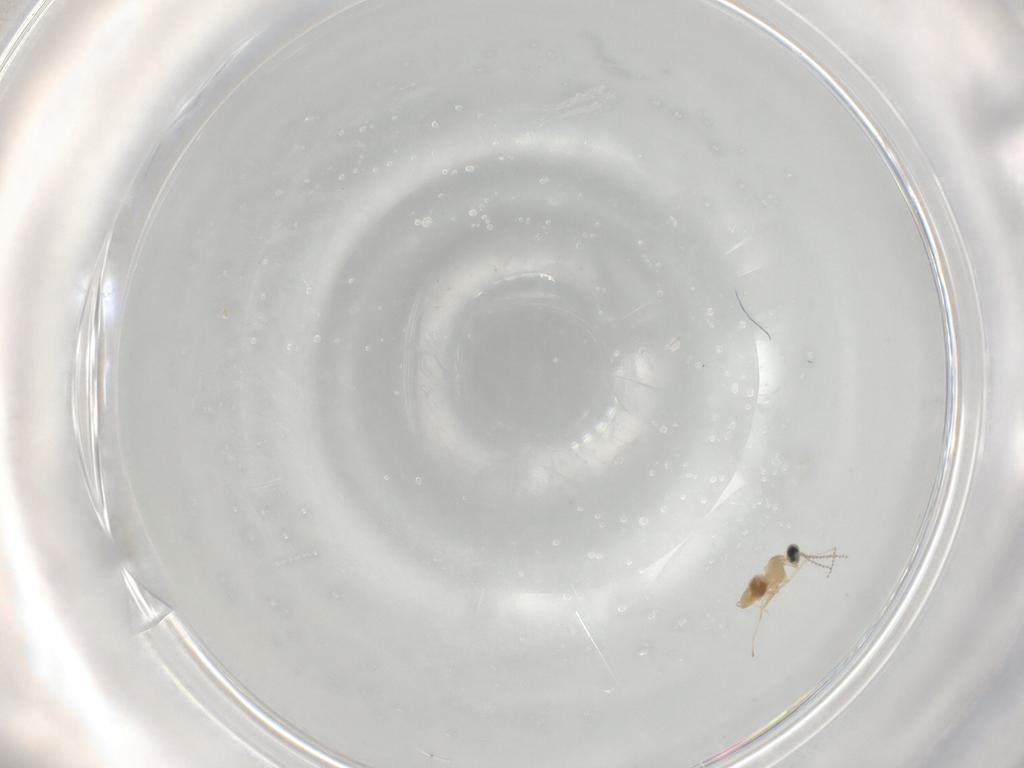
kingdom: Animalia
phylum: Arthropoda
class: Insecta
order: Diptera
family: Cecidomyiidae
